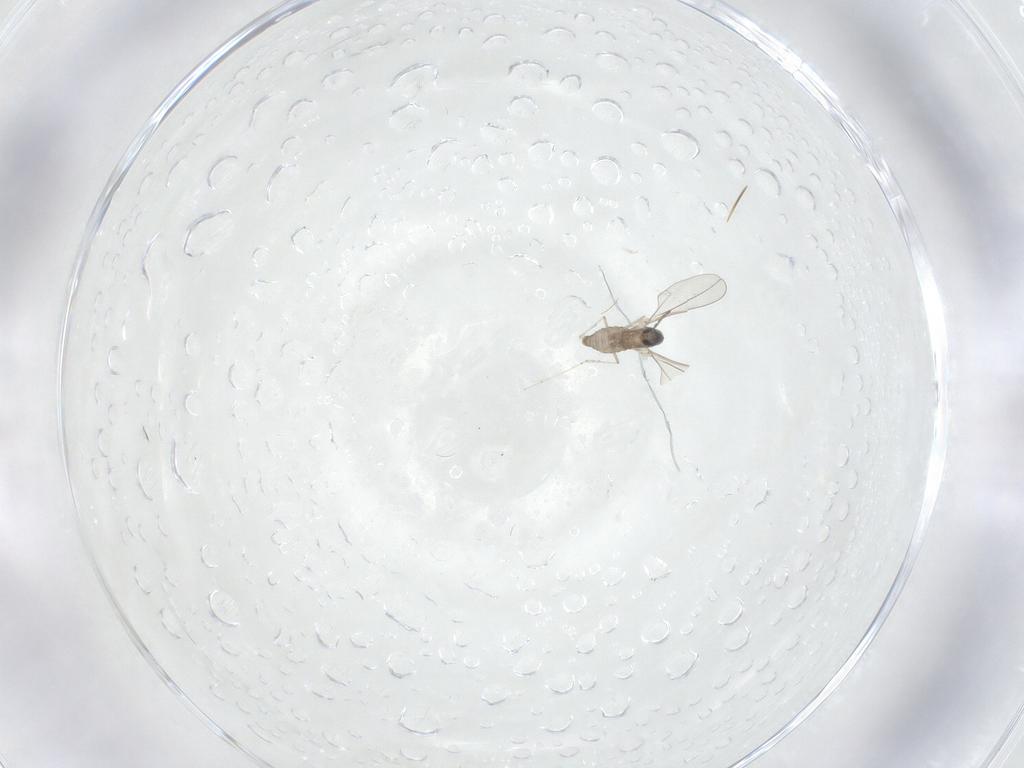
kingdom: Animalia
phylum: Arthropoda
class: Insecta
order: Diptera
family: Cecidomyiidae
